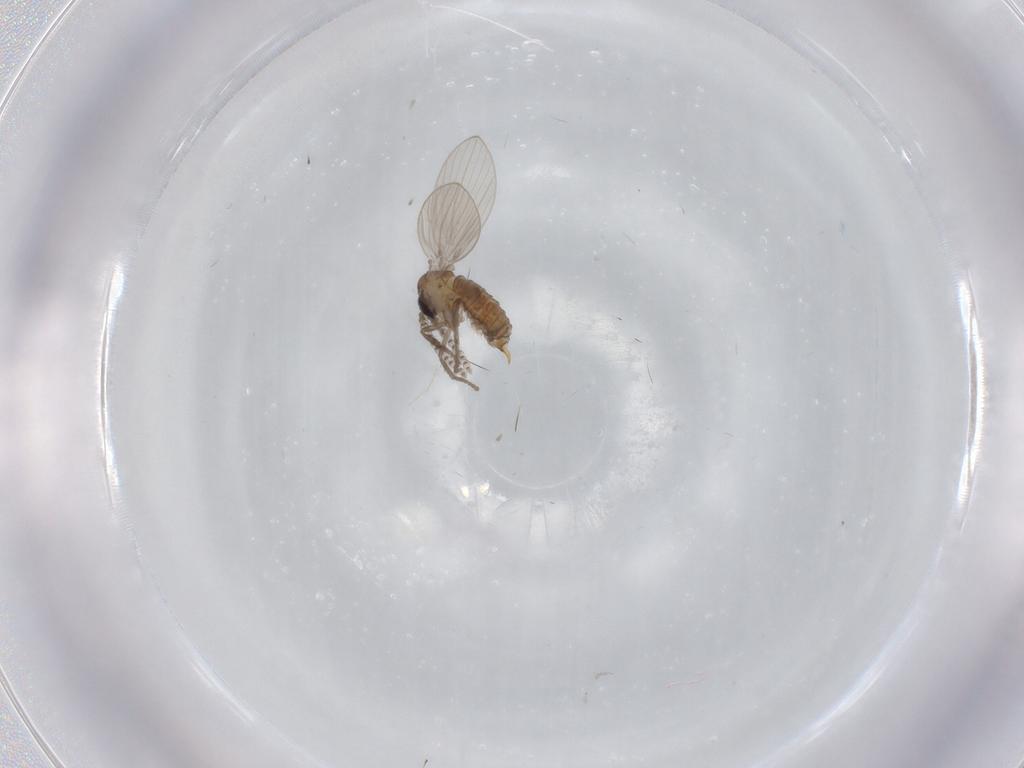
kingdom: Animalia
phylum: Arthropoda
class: Insecta
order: Diptera
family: Psychodidae
